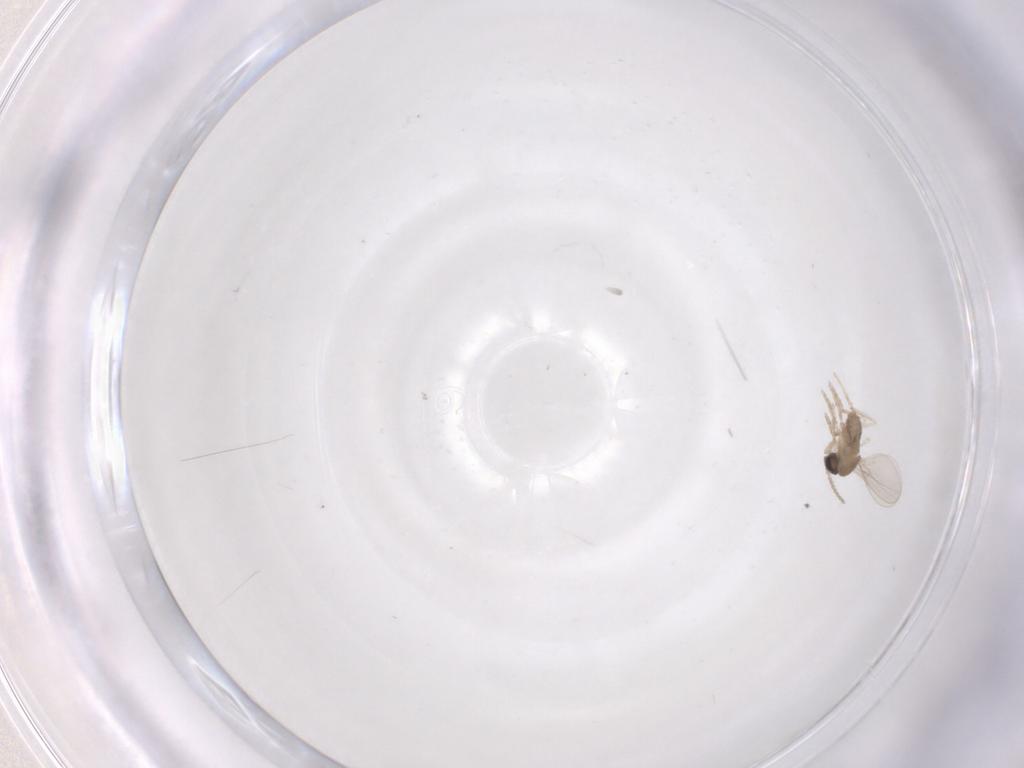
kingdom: Animalia
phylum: Arthropoda
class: Insecta
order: Diptera
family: Cecidomyiidae
